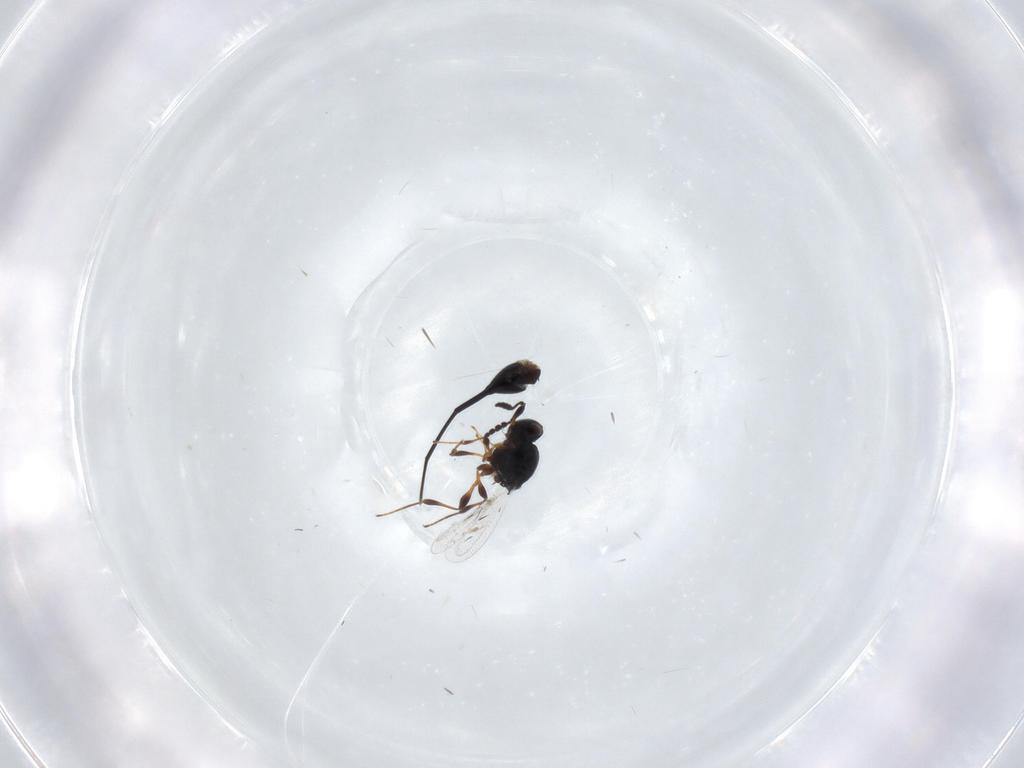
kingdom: Animalia
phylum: Arthropoda
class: Insecta
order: Hymenoptera
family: Platygastridae
